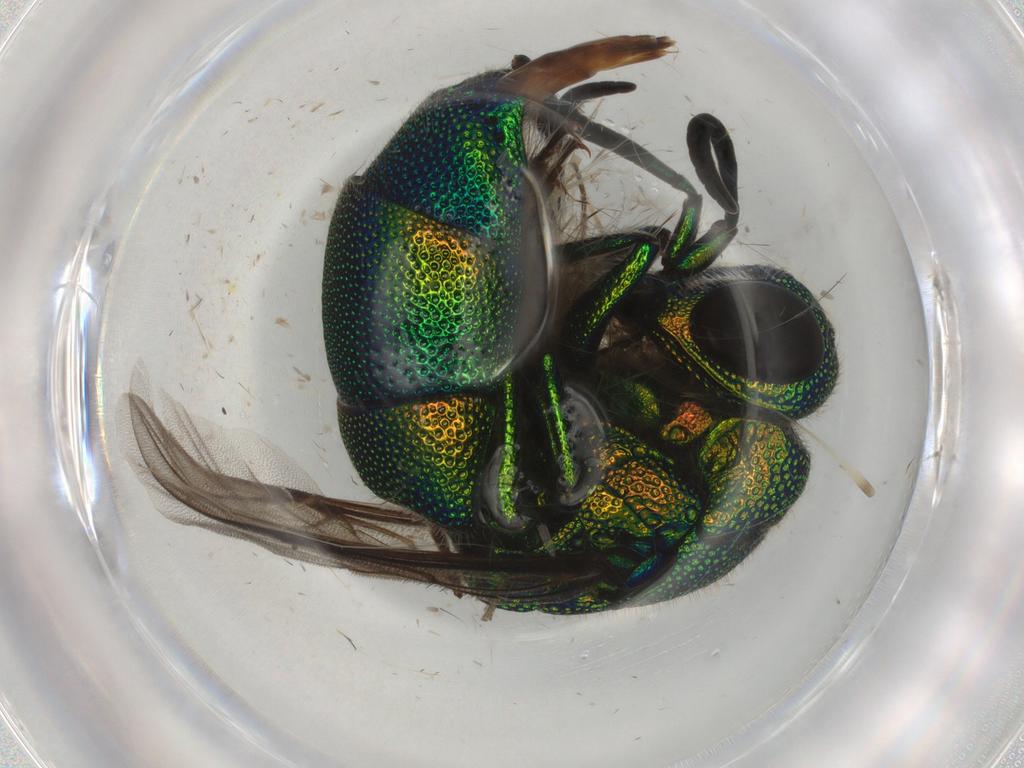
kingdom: Animalia
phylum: Arthropoda
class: Insecta
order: Hymenoptera
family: Chrysididae
